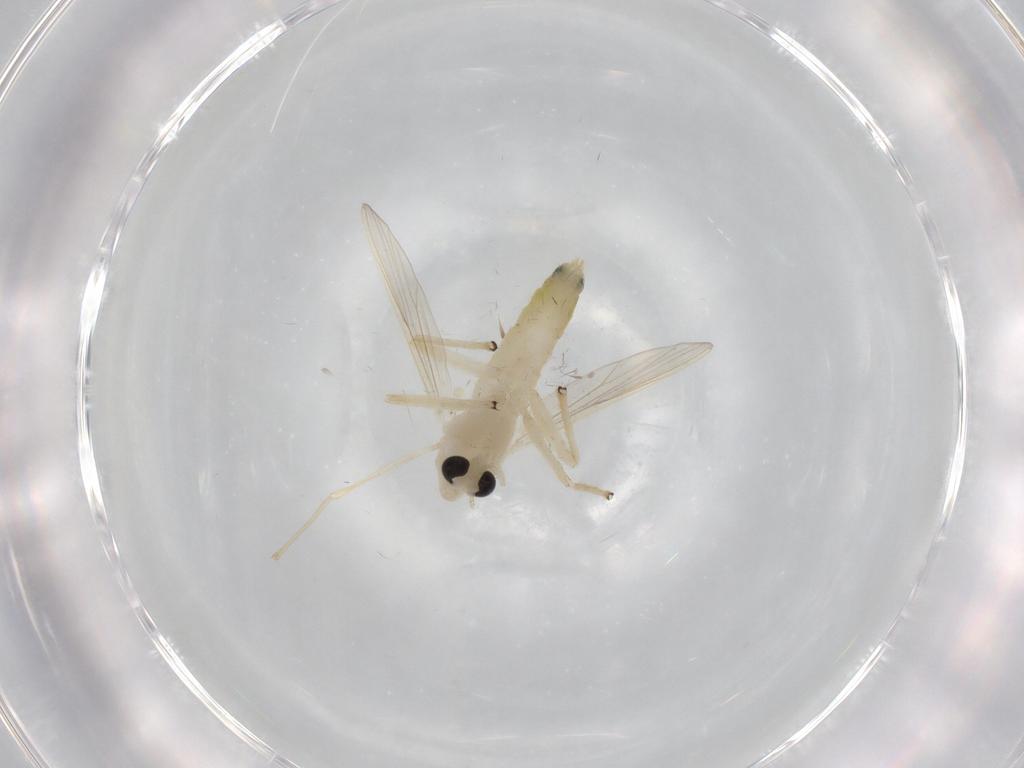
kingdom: Animalia
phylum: Arthropoda
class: Insecta
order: Diptera
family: Chironomidae
